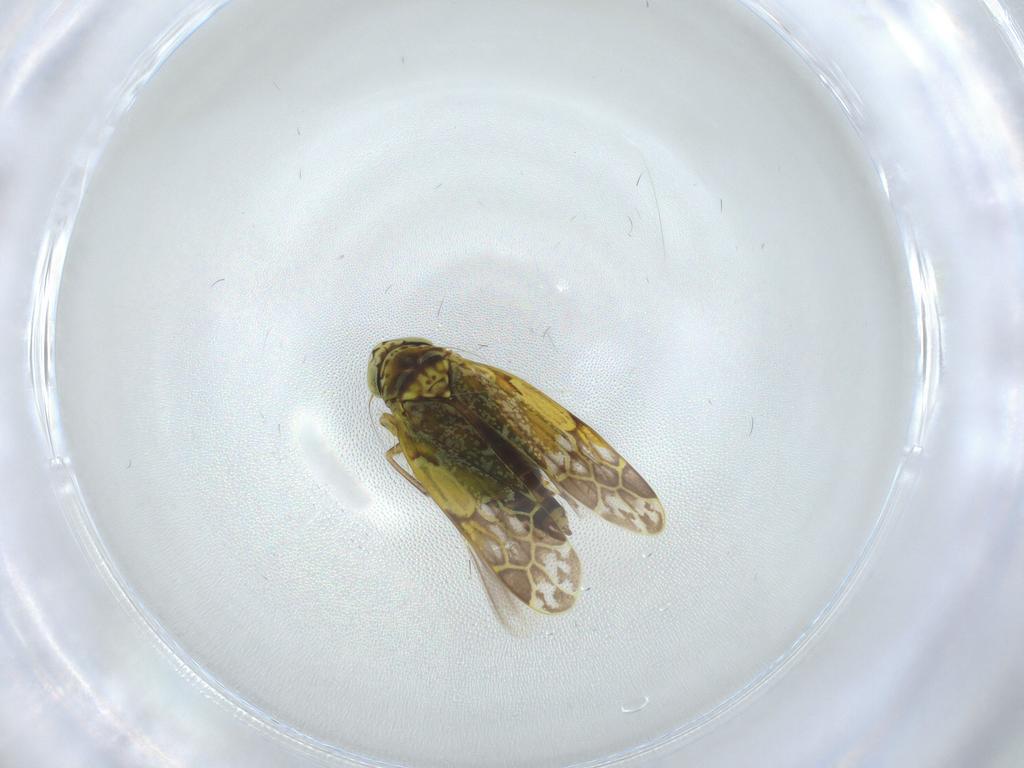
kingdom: Animalia
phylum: Arthropoda
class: Insecta
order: Hemiptera
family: Cicadellidae
